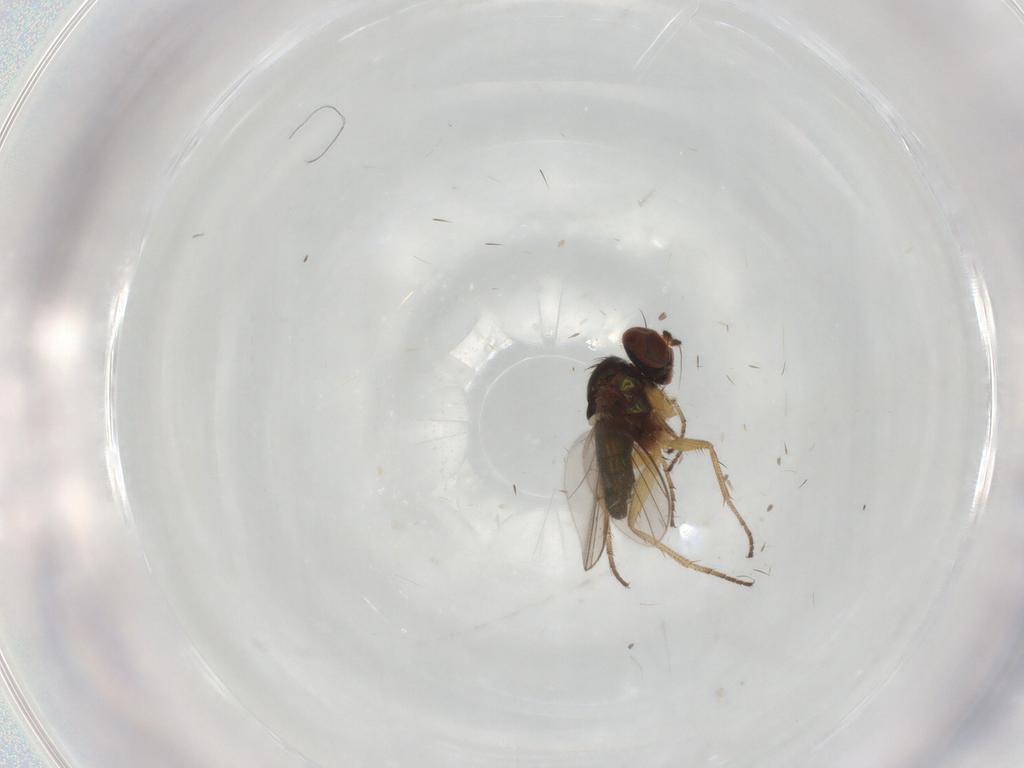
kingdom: Animalia
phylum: Arthropoda
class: Insecta
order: Diptera
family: Dolichopodidae
